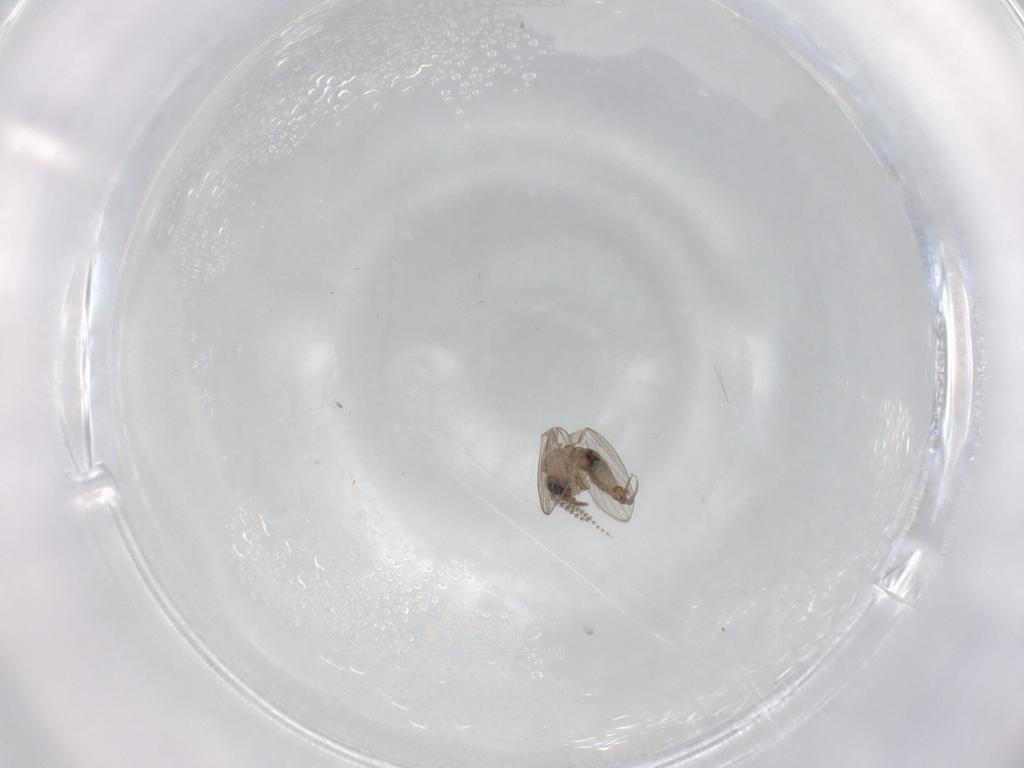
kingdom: Animalia
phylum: Arthropoda
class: Insecta
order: Diptera
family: Psychodidae
